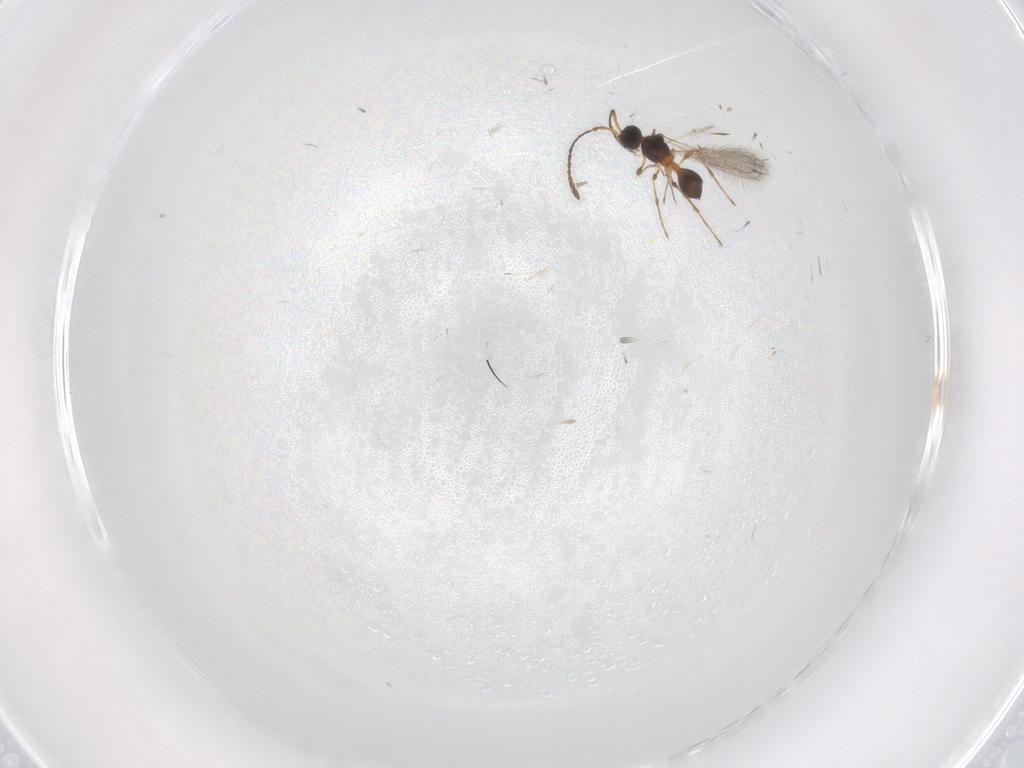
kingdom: Animalia
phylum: Arthropoda
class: Insecta
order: Hymenoptera
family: Diapriidae
